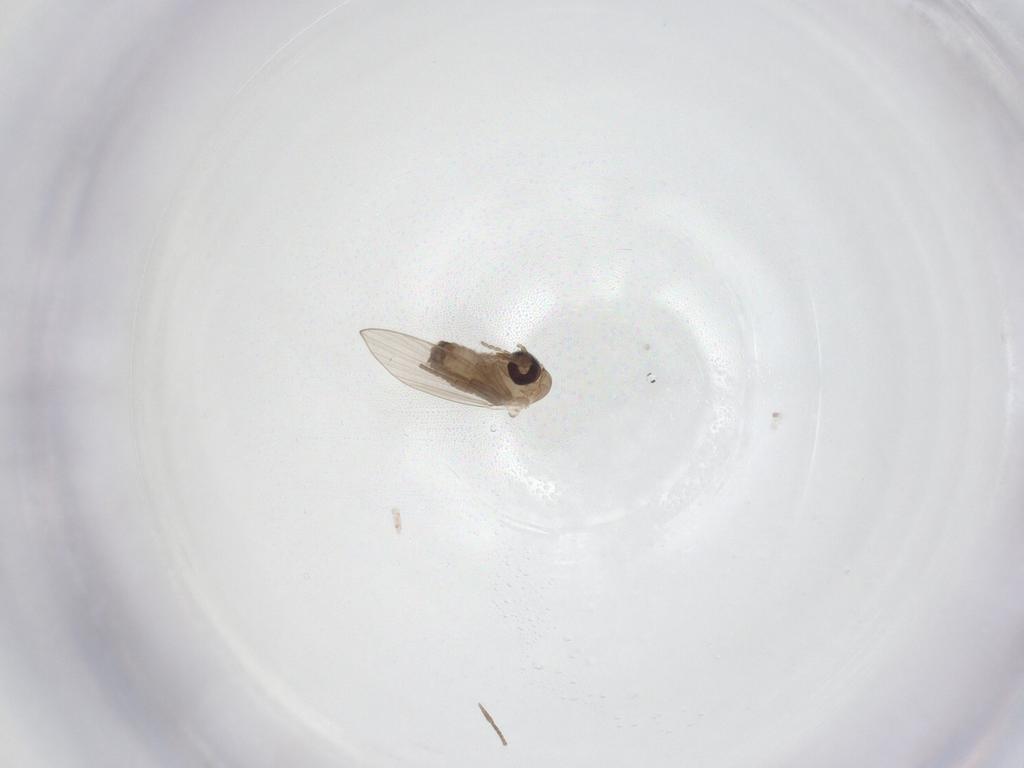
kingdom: Animalia
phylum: Arthropoda
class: Insecta
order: Diptera
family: Psychodidae
